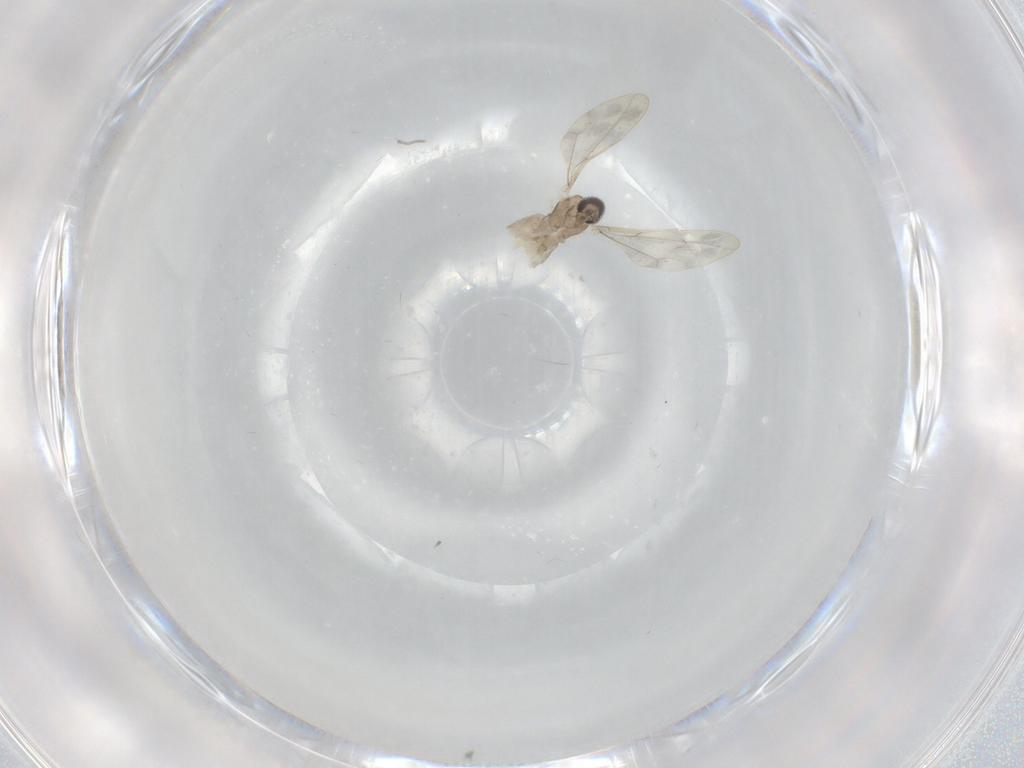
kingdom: Animalia
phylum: Arthropoda
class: Insecta
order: Diptera
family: Cecidomyiidae
